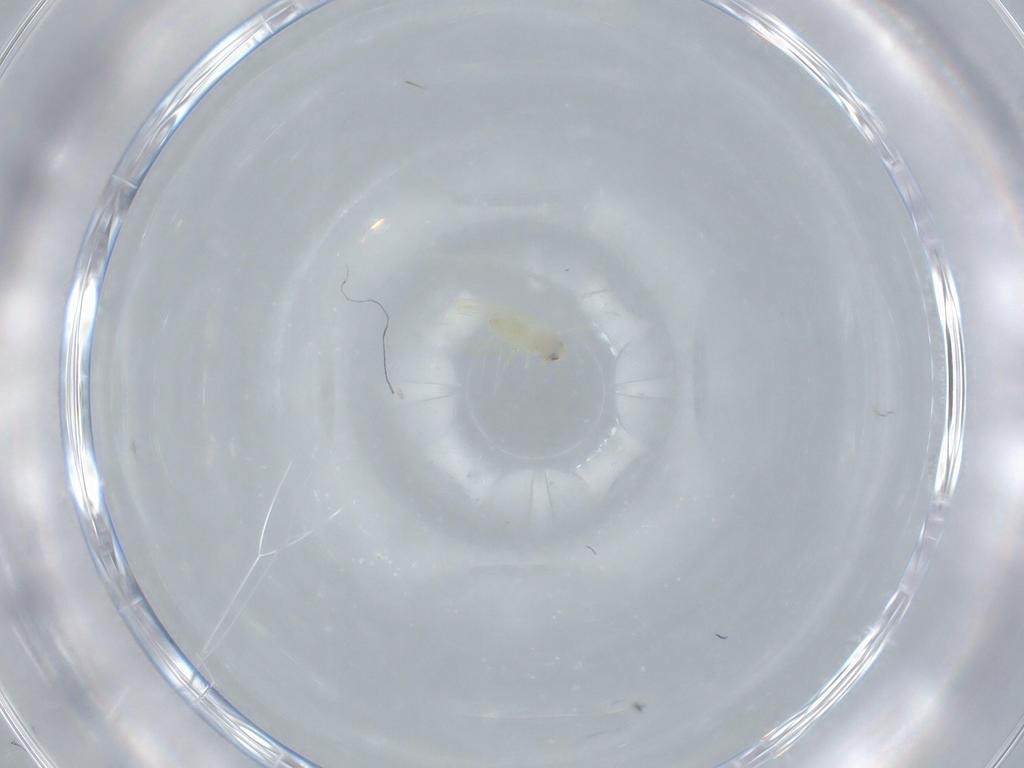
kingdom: Animalia
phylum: Arthropoda
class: Insecta
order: Hemiptera
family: Aleyrodidae
